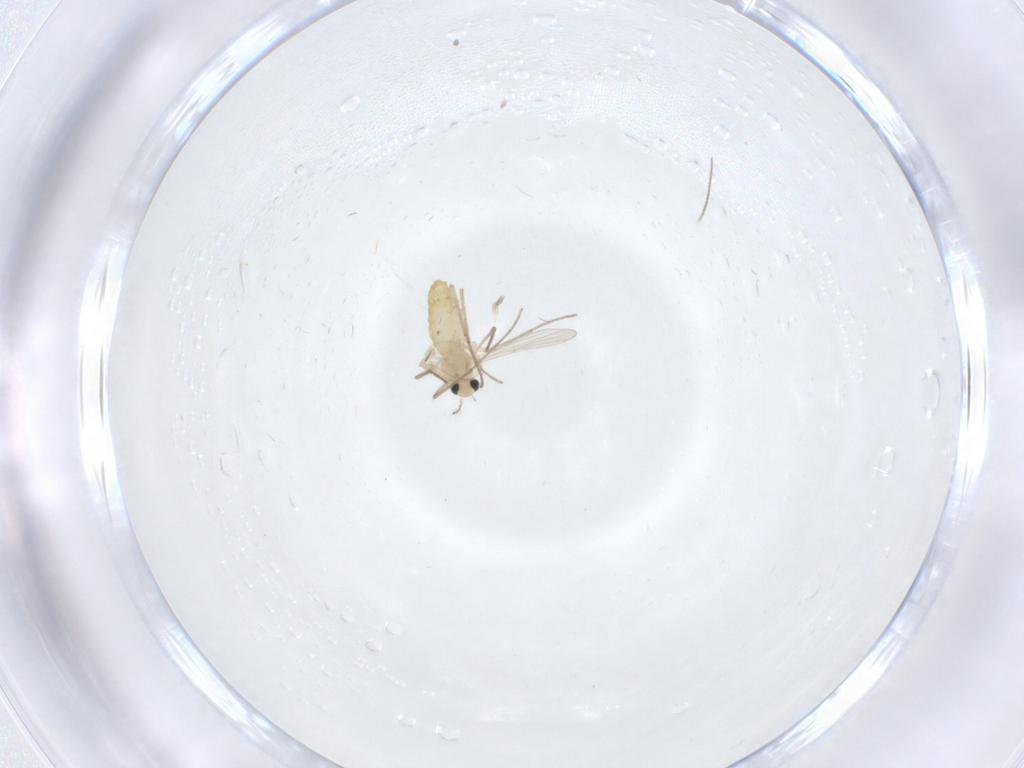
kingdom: Animalia
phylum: Arthropoda
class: Insecta
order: Diptera
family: Chironomidae
